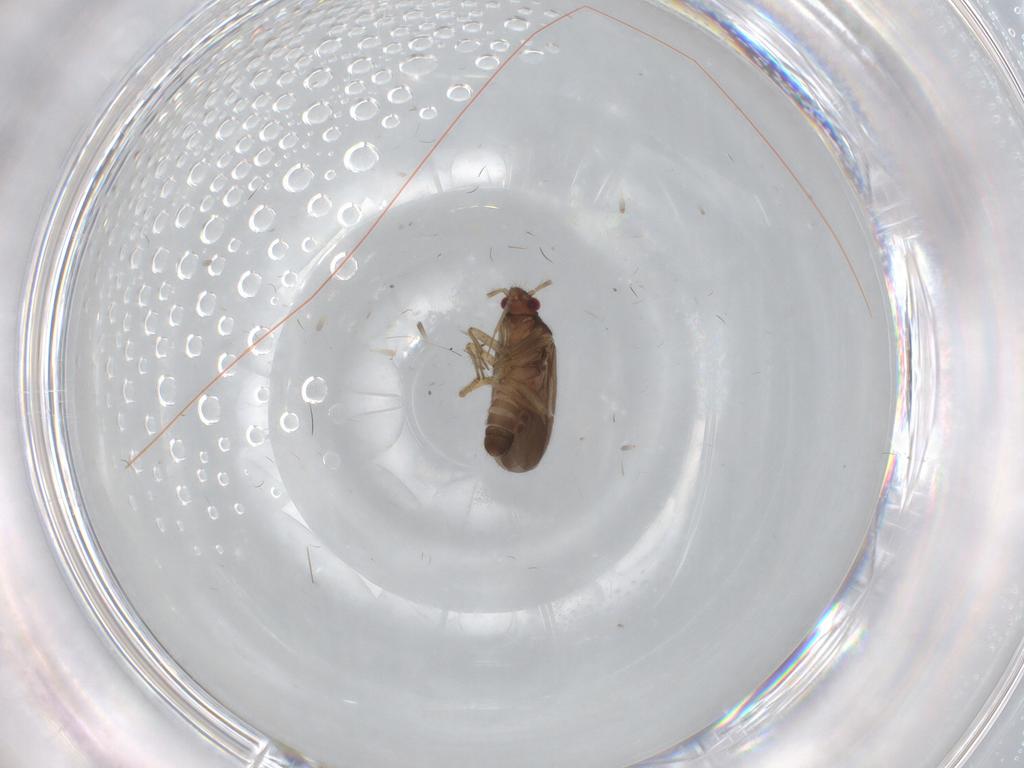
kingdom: Animalia
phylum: Arthropoda
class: Insecta
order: Hemiptera
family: Ceratocombidae
